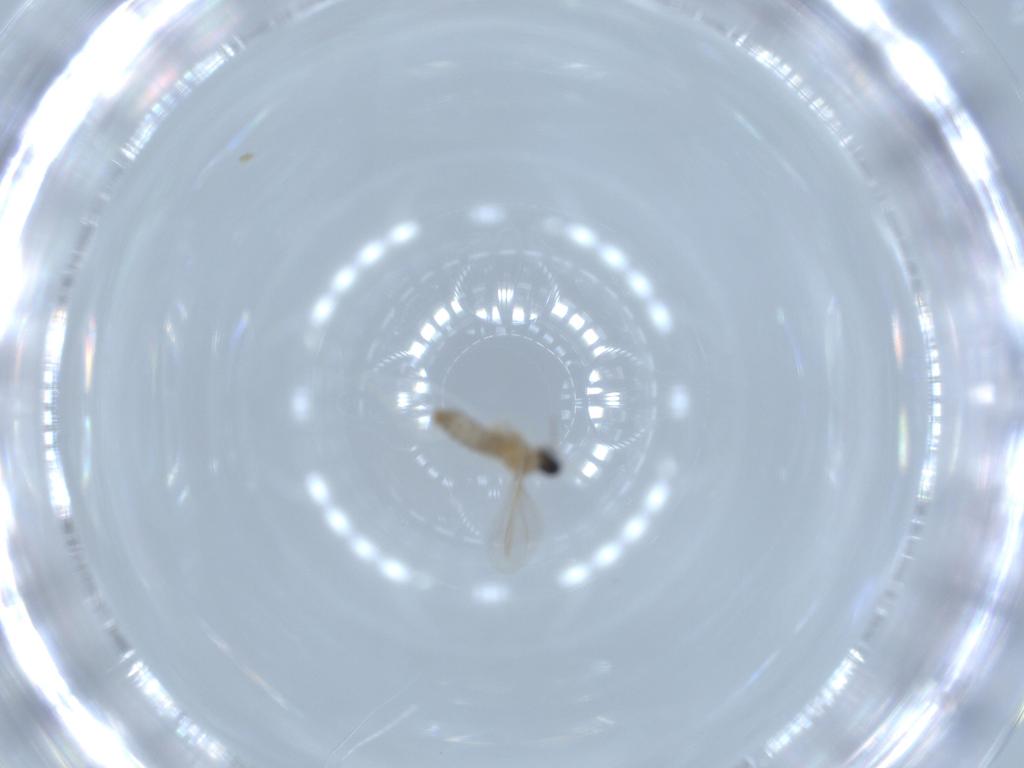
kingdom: Animalia
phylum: Arthropoda
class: Insecta
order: Diptera
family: Cecidomyiidae
